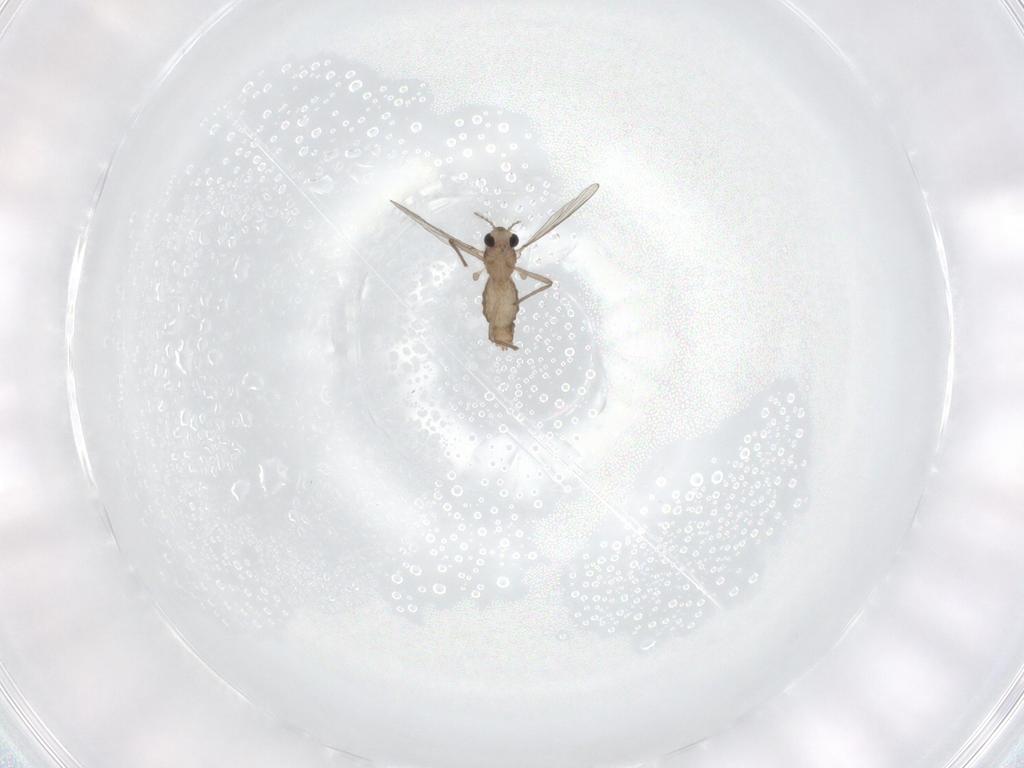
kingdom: Animalia
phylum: Arthropoda
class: Insecta
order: Diptera
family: Chironomidae
